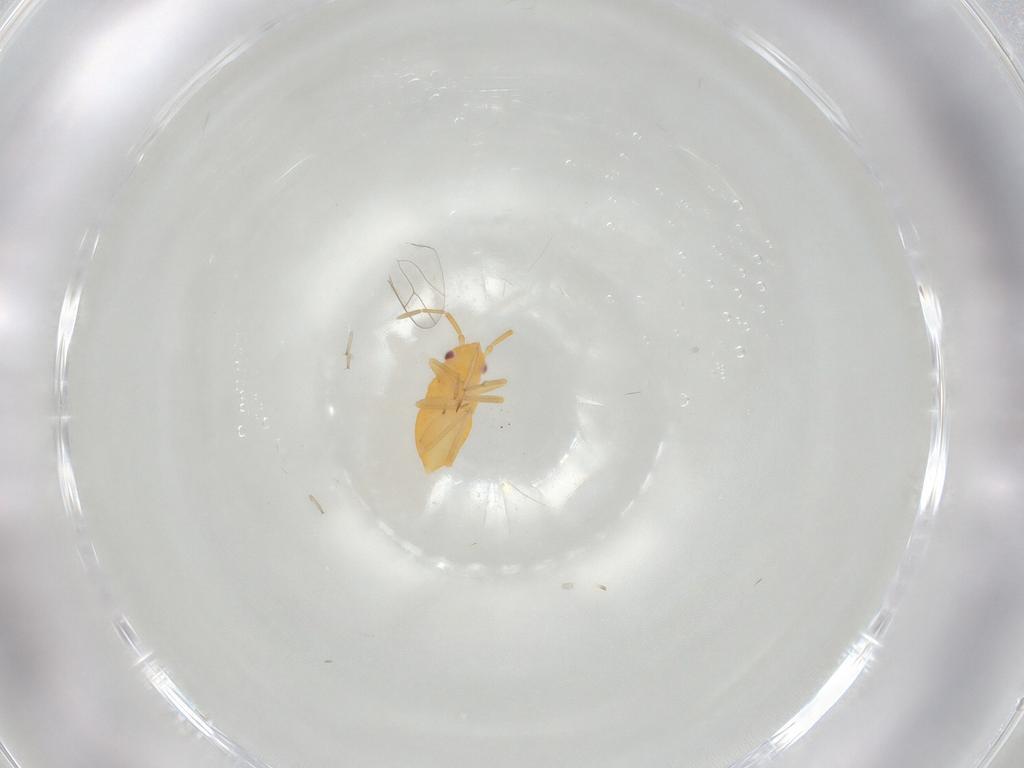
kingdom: Animalia
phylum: Arthropoda
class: Insecta
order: Hemiptera
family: Miridae
